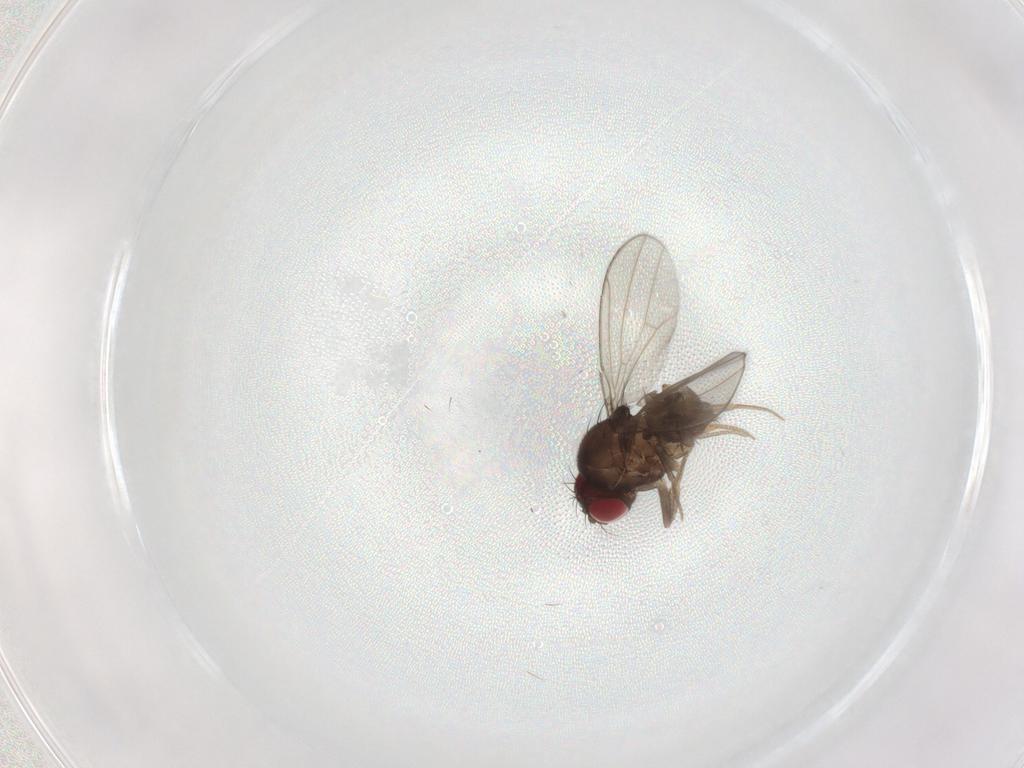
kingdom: Animalia
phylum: Arthropoda
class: Insecta
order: Diptera
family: Drosophilidae
